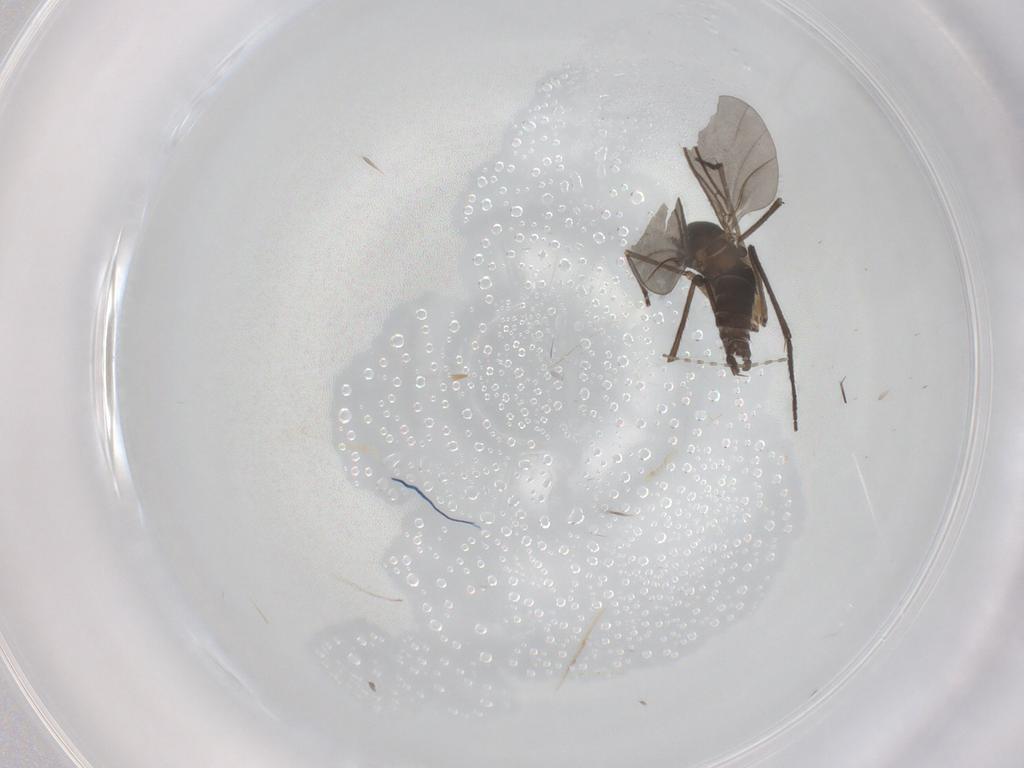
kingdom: Animalia
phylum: Arthropoda
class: Insecta
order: Diptera
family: Sciaridae
